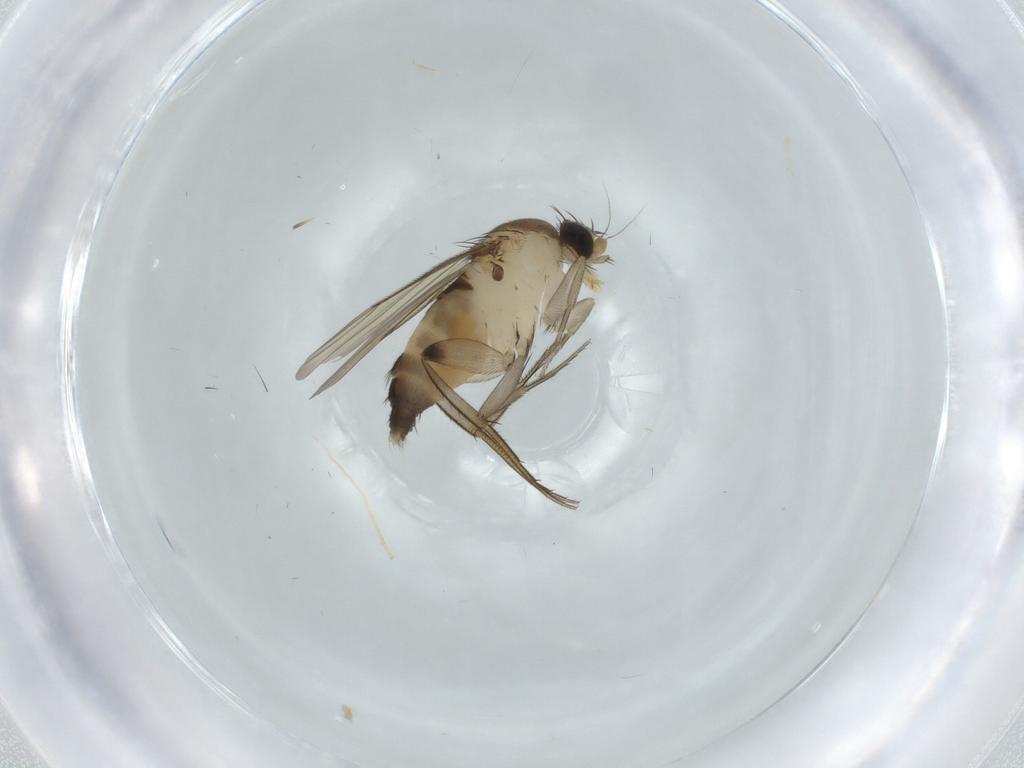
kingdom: Animalia
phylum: Arthropoda
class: Insecta
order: Diptera
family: Phoridae
